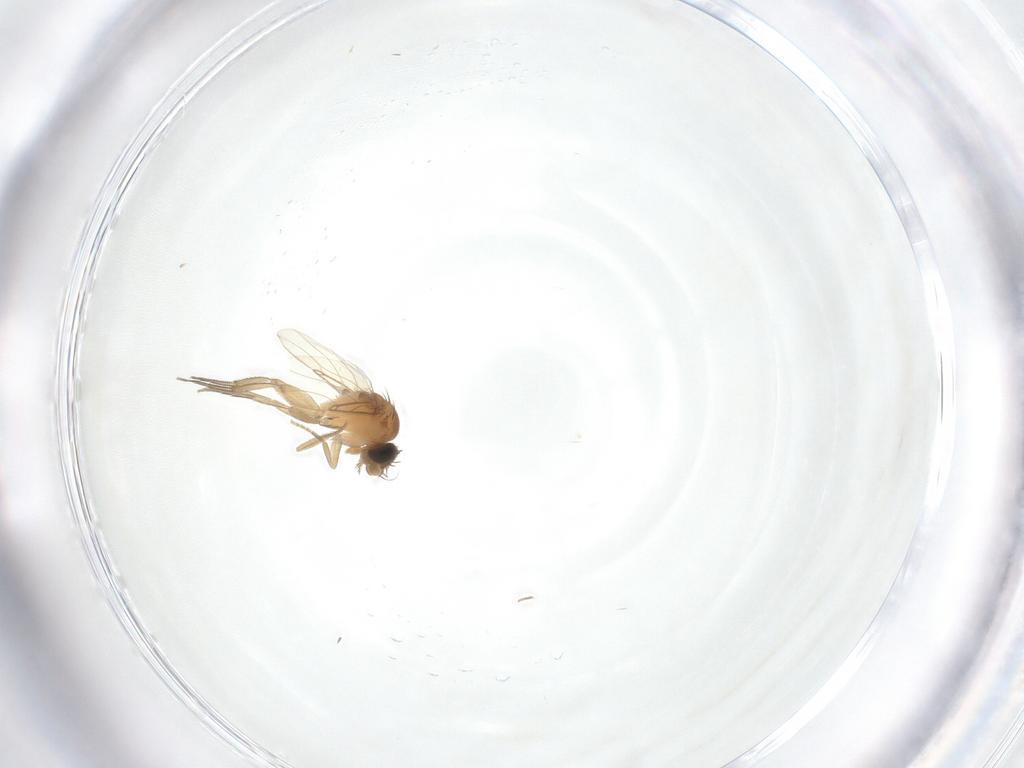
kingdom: Animalia
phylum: Arthropoda
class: Insecta
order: Diptera
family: Phoridae
